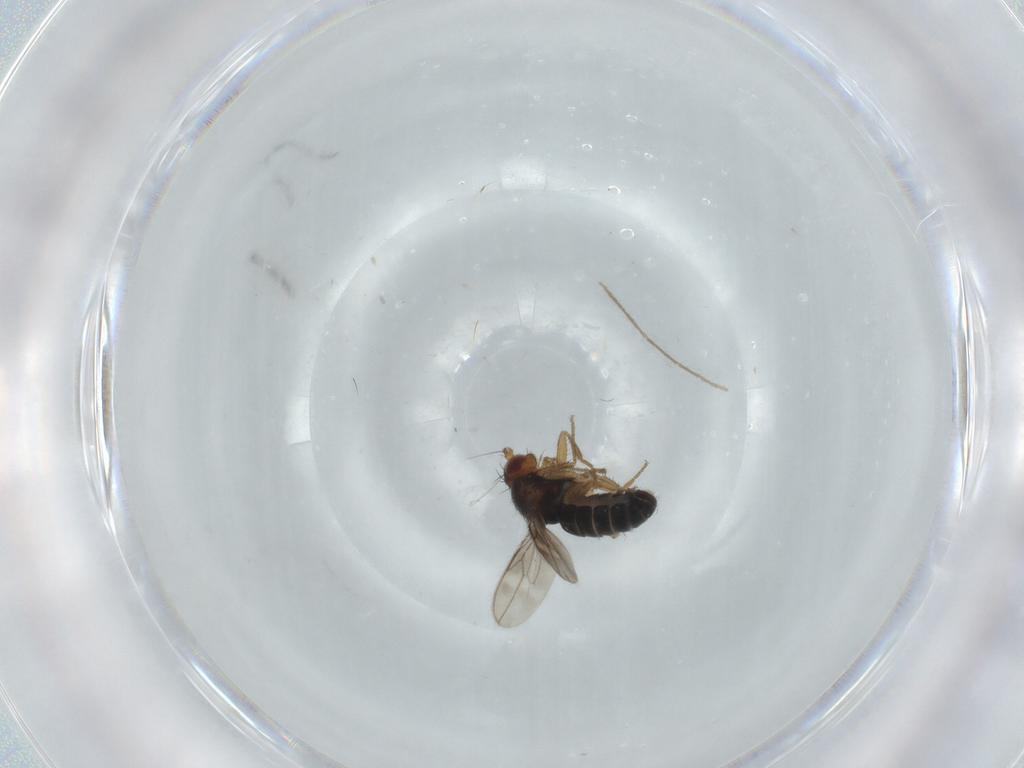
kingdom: Animalia
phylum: Arthropoda
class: Insecta
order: Diptera
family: Sphaeroceridae
